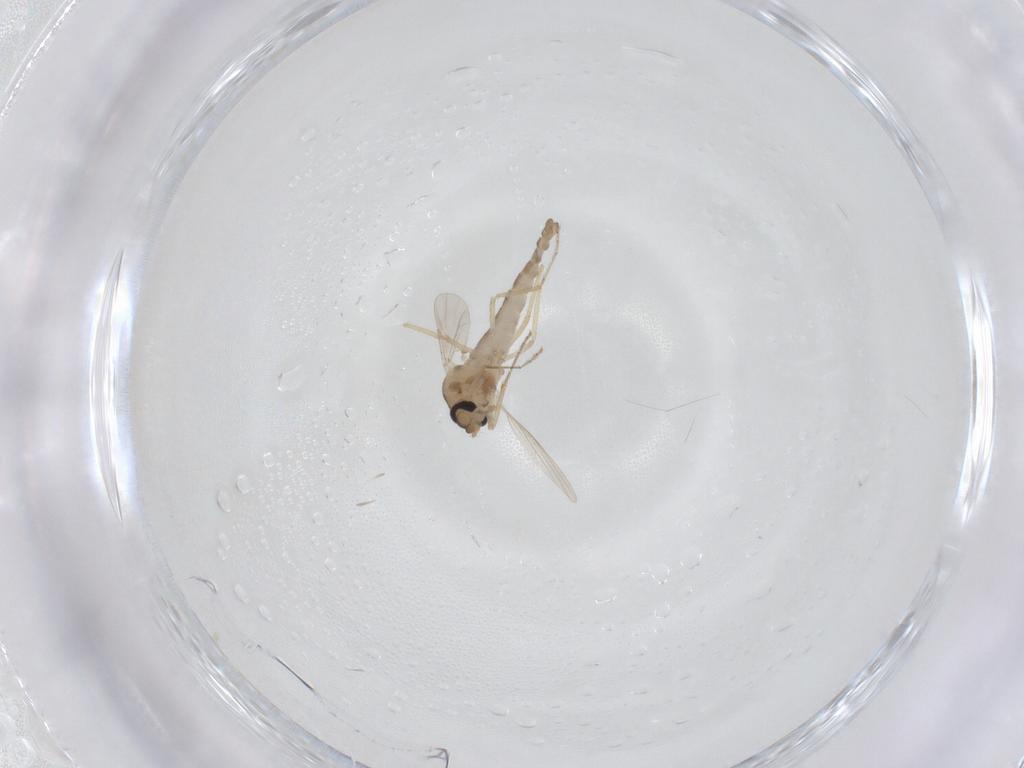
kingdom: Animalia
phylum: Arthropoda
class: Insecta
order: Diptera
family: Ceratopogonidae
